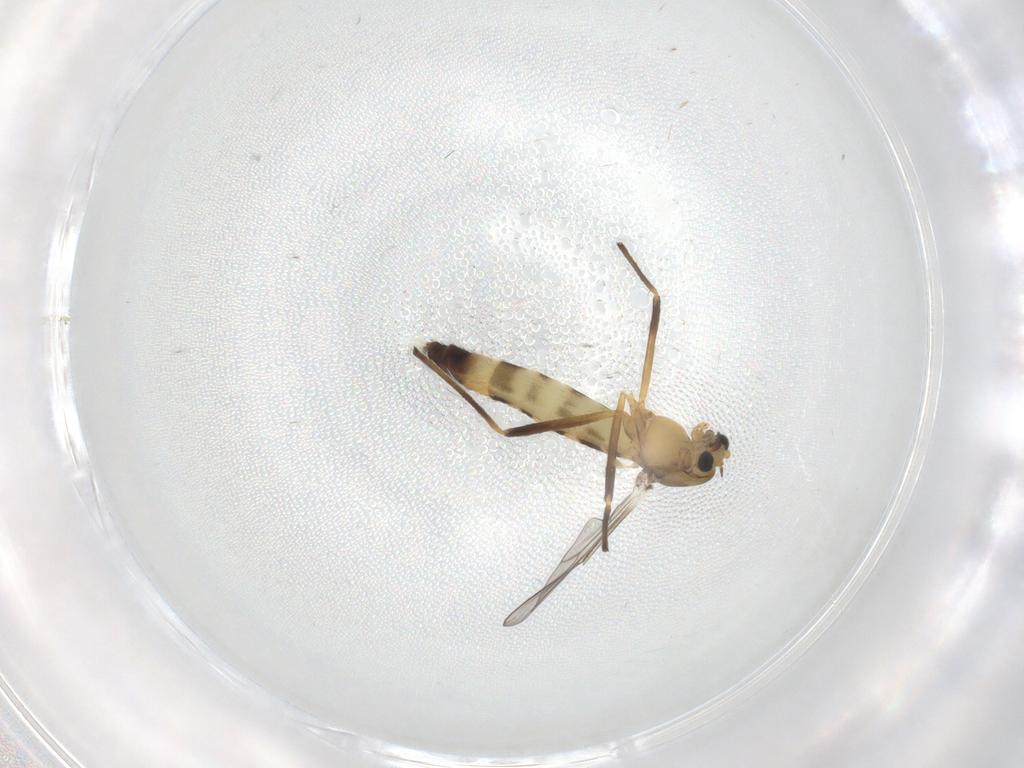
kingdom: Animalia
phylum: Arthropoda
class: Insecta
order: Diptera
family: Chironomidae
